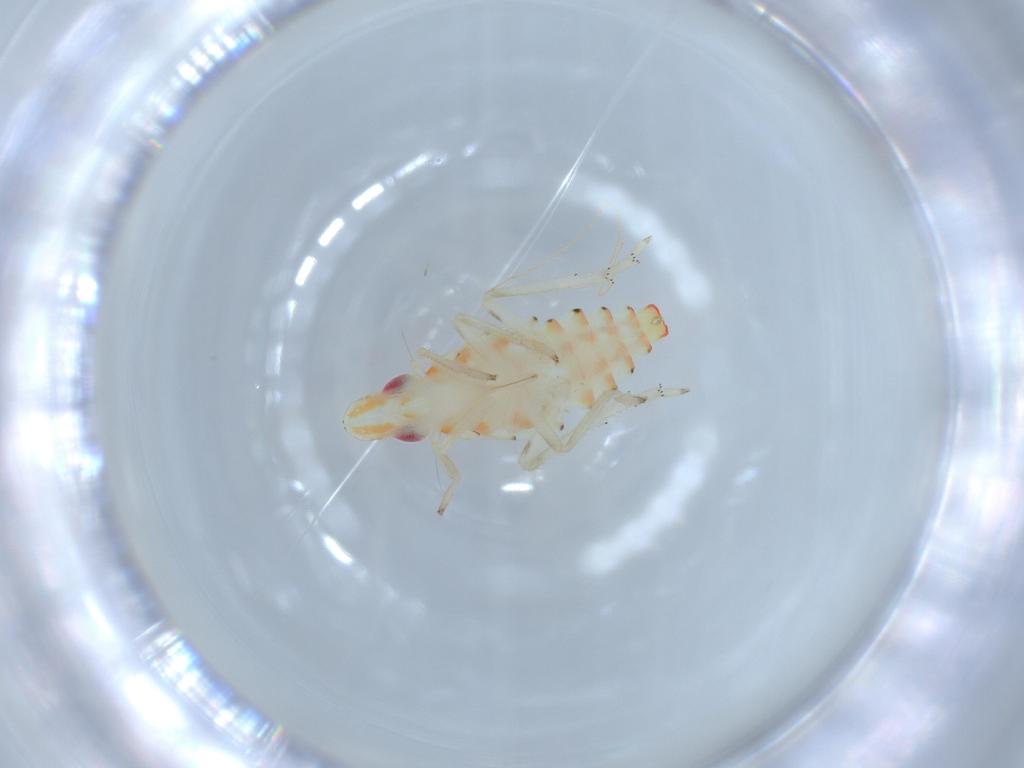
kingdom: Animalia
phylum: Arthropoda
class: Insecta
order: Hemiptera
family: Tropiduchidae
